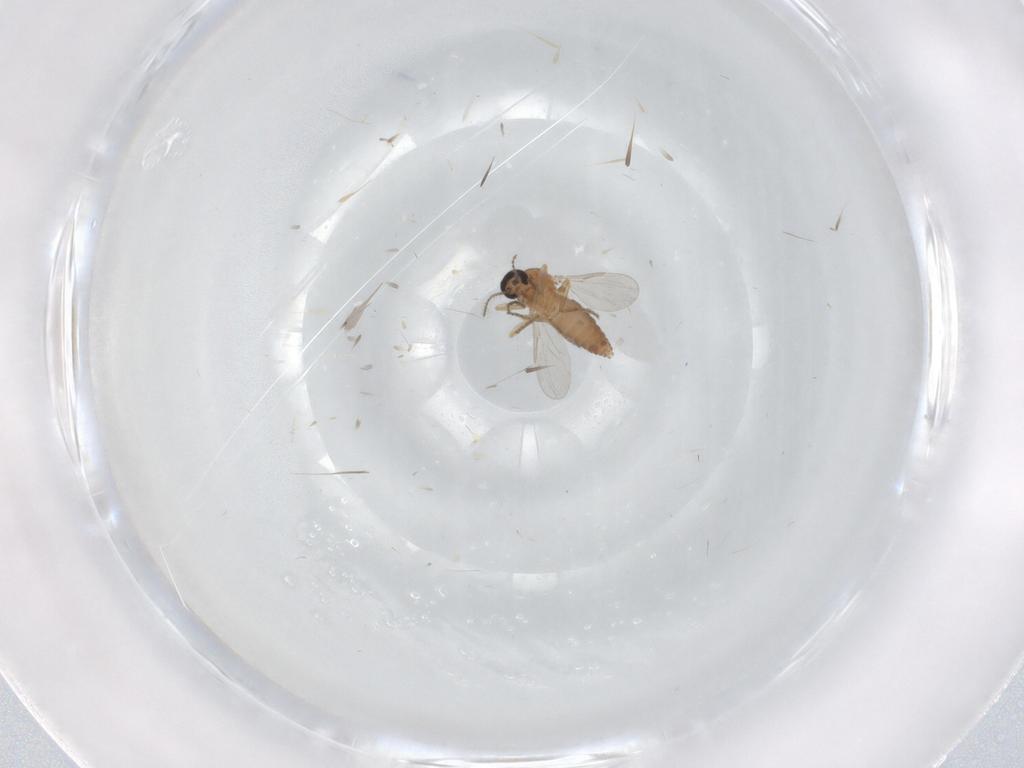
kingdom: Animalia
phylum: Arthropoda
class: Insecta
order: Diptera
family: Ceratopogonidae
